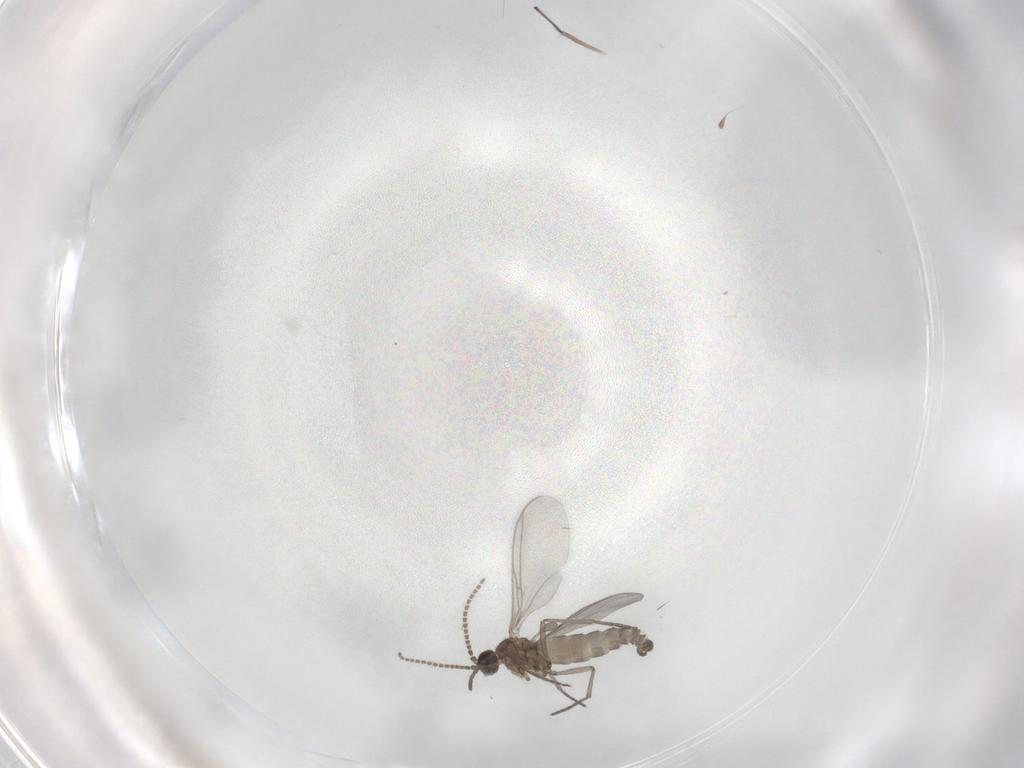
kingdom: Animalia
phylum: Arthropoda
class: Insecta
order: Diptera
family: Chironomidae
